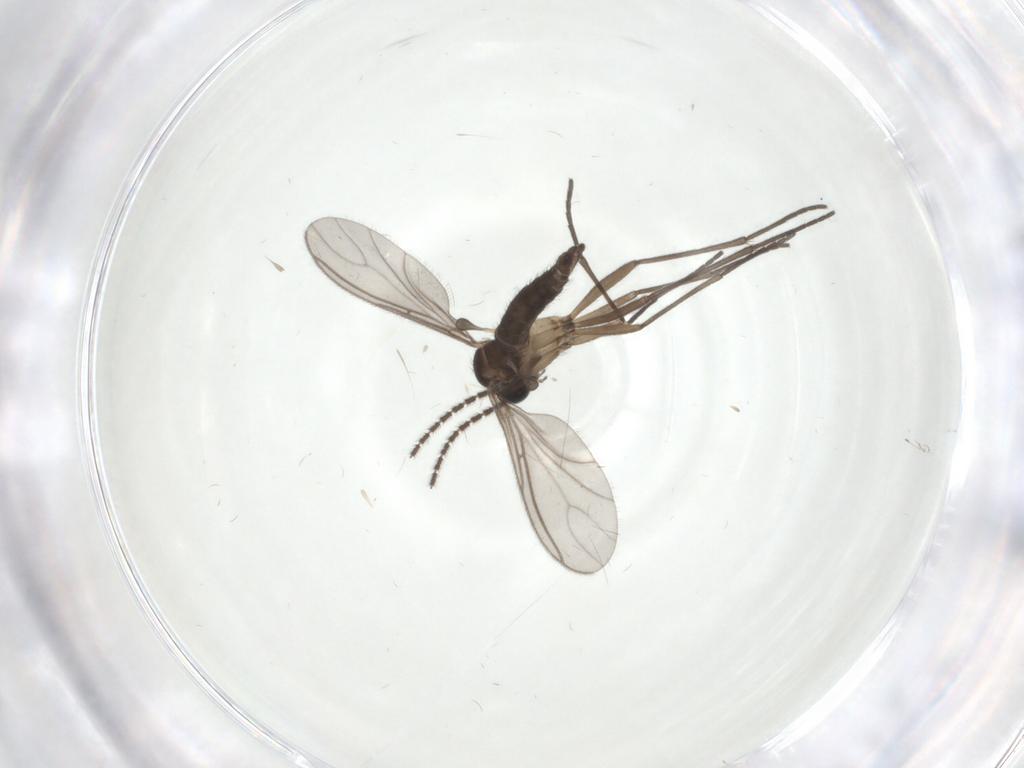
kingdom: Animalia
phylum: Arthropoda
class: Insecta
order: Diptera
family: Sciaridae
